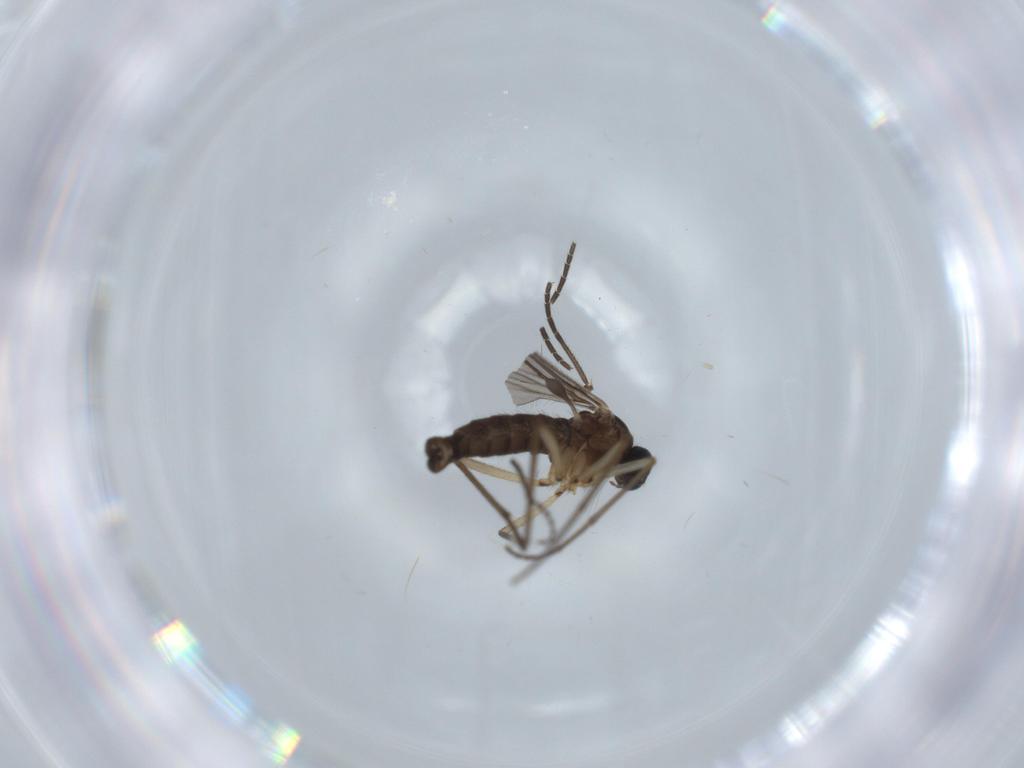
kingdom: Animalia
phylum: Arthropoda
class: Insecta
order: Diptera
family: Sciaridae
